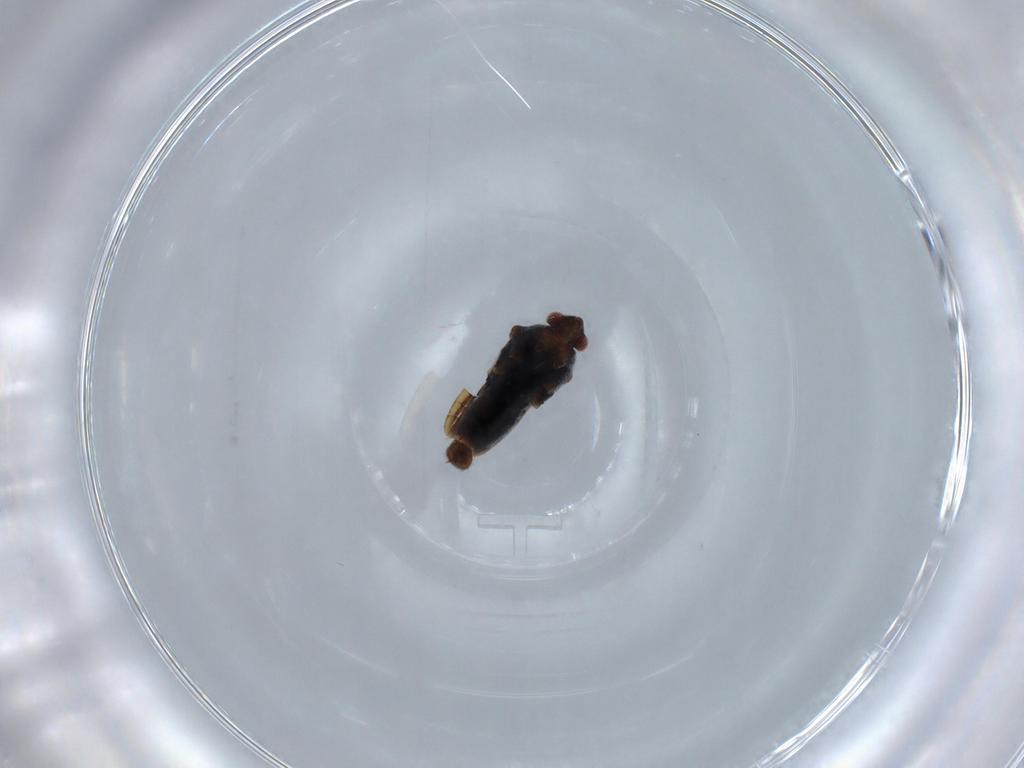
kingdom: Animalia
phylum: Arthropoda
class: Insecta
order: Hemiptera
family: Veliidae
